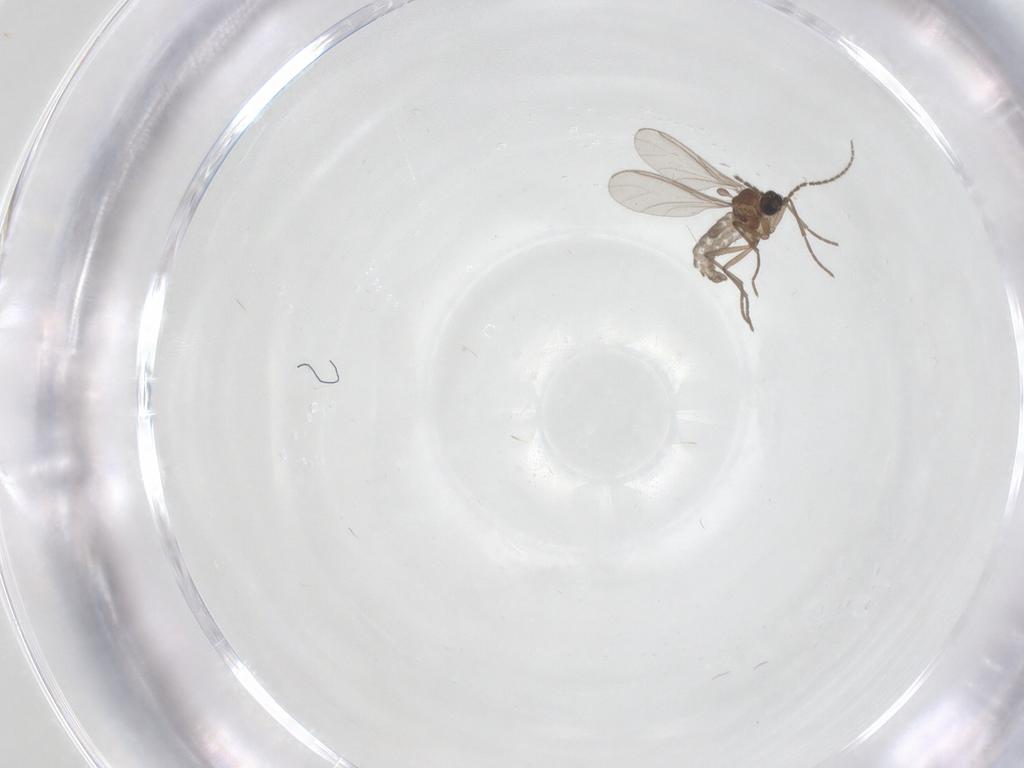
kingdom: Animalia
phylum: Arthropoda
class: Insecta
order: Diptera
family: Sciaridae
